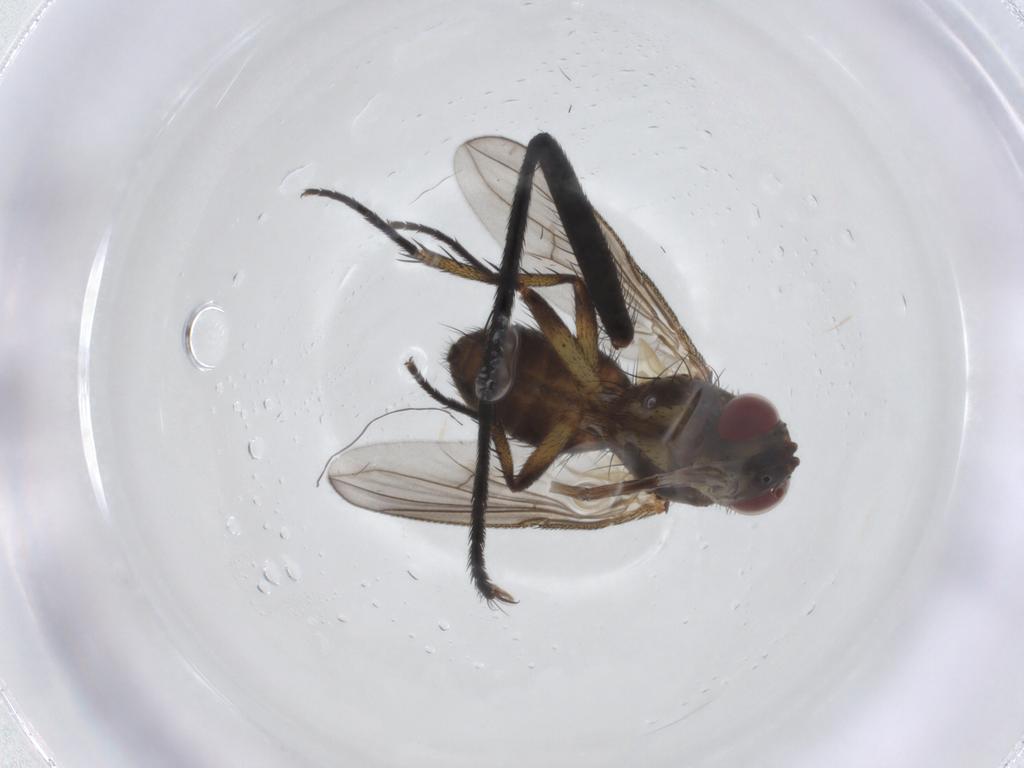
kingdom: Animalia
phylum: Arthropoda
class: Insecta
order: Diptera
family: Tachinidae
